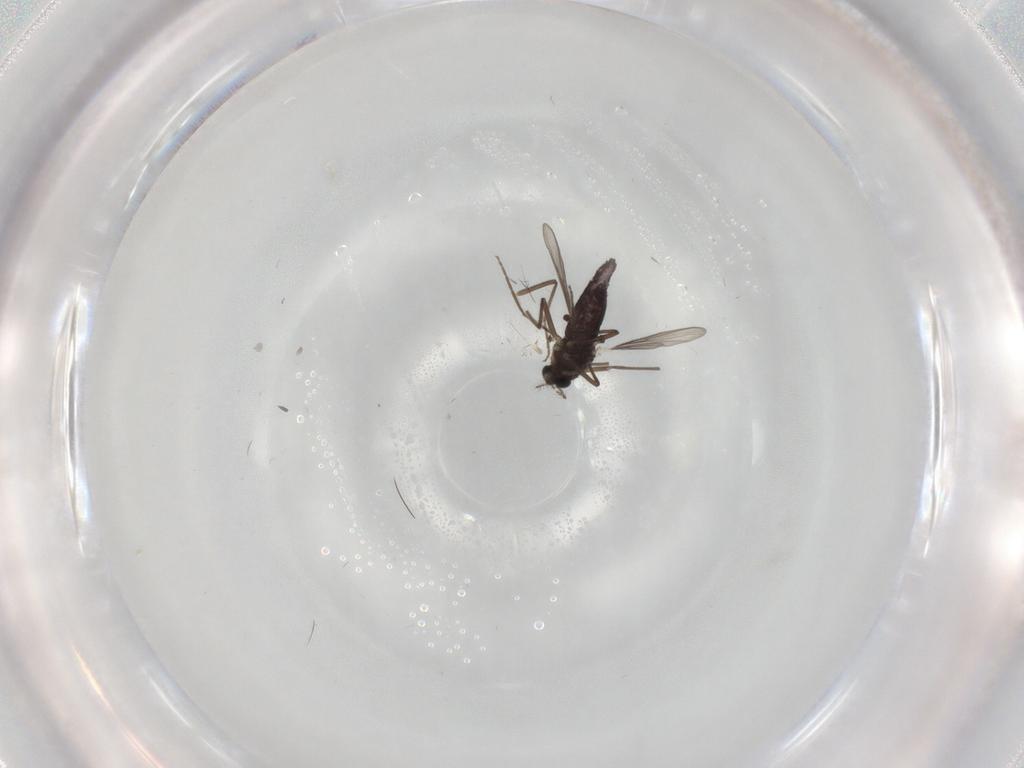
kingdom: Animalia
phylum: Arthropoda
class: Insecta
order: Diptera
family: Chironomidae
